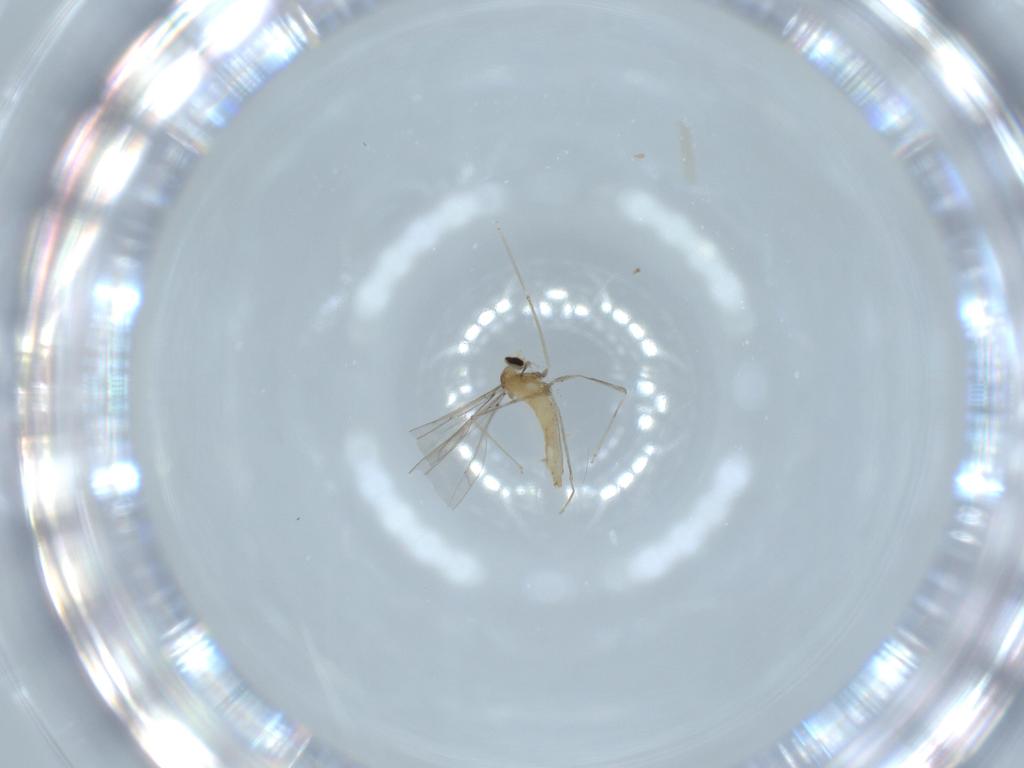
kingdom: Animalia
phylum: Arthropoda
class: Insecta
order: Diptera
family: Cecidomyiidae
